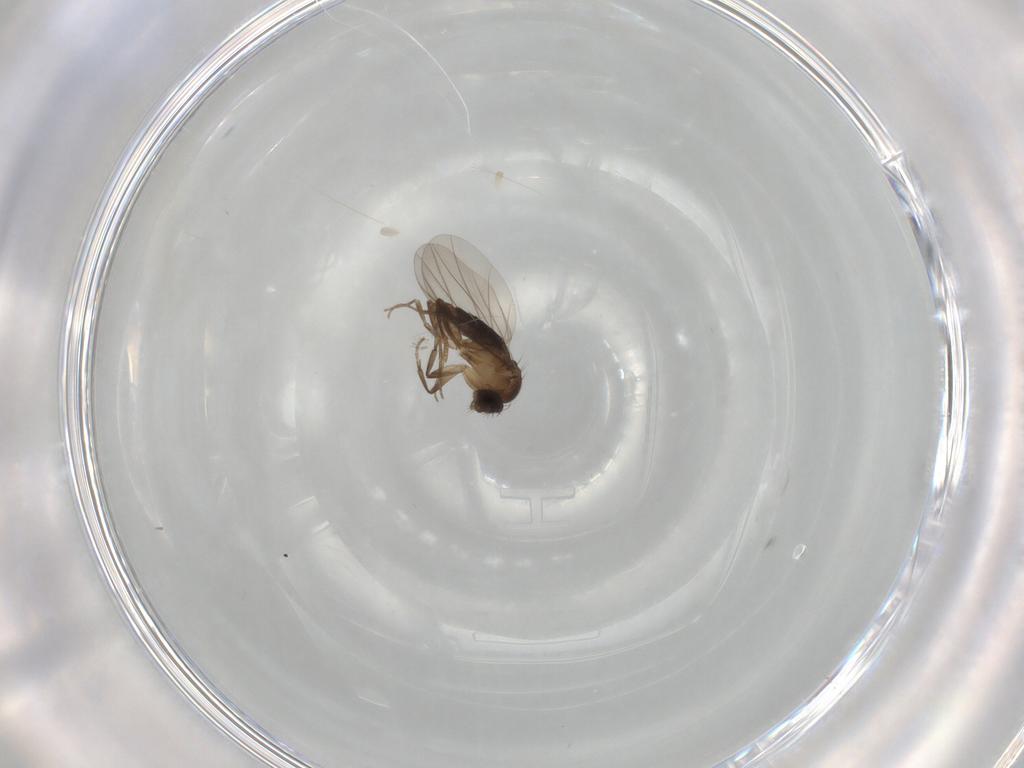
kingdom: Animalia
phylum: Arthropoda
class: Insecta
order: Diptera
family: Phoridae
